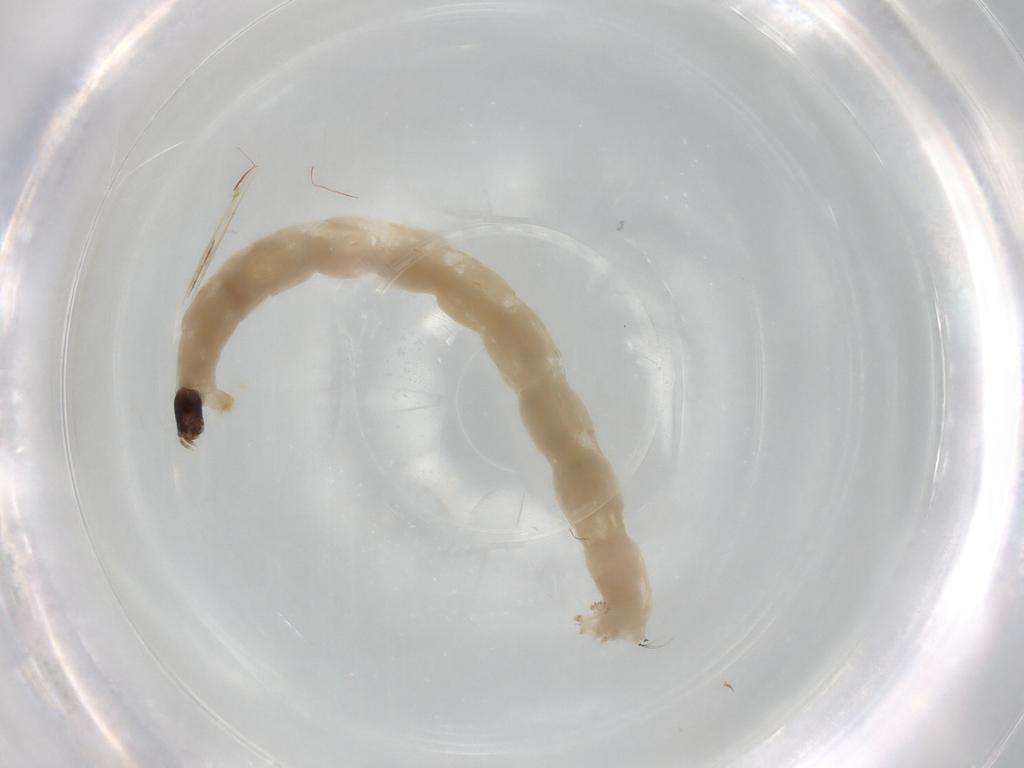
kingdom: Animalia
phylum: Arthropoda
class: Insecta
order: Diptera
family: Chironomidae
